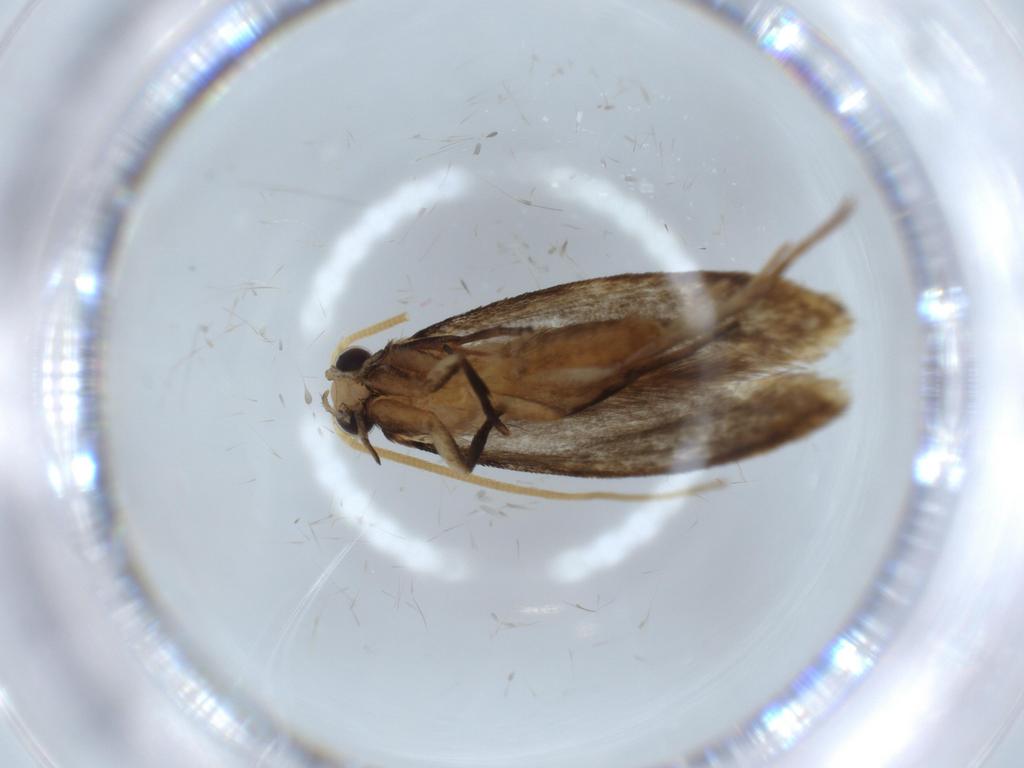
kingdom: Animalia
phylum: Arthropoda
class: Insecta
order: Lepidoptera
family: Tineidae
